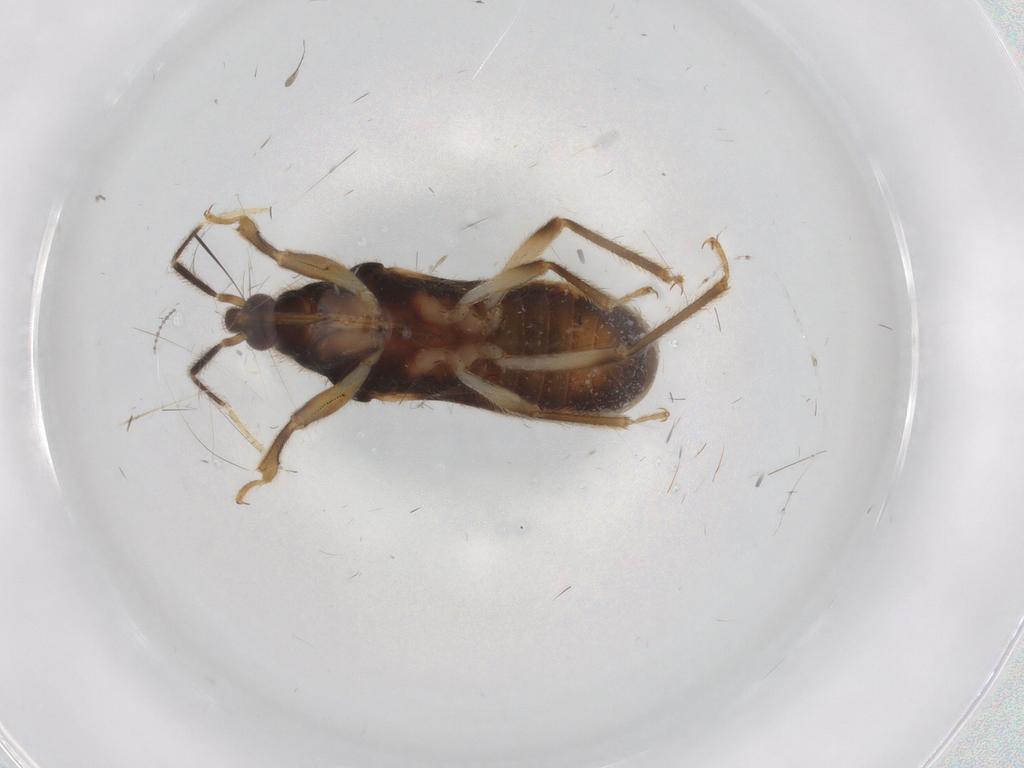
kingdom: Animalia
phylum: Arthropoda
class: Insecta
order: Hemiptera
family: Nabidae
